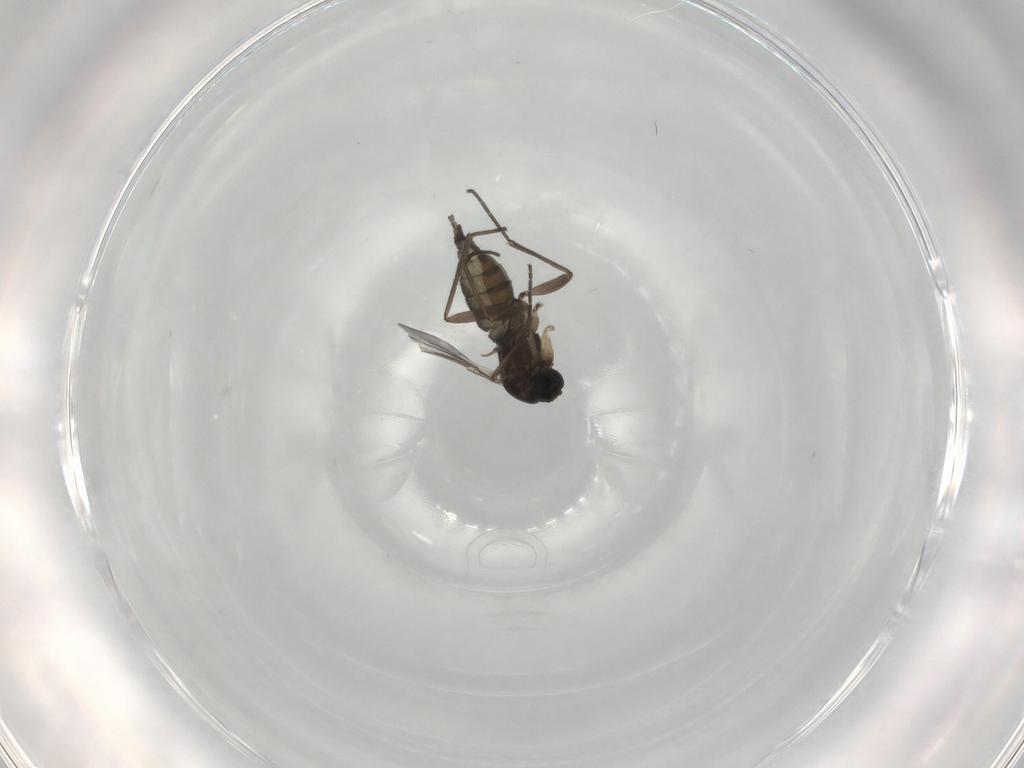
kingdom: Animalia
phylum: Arthropoda
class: Insecta
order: Diptera
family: Sciaridae
